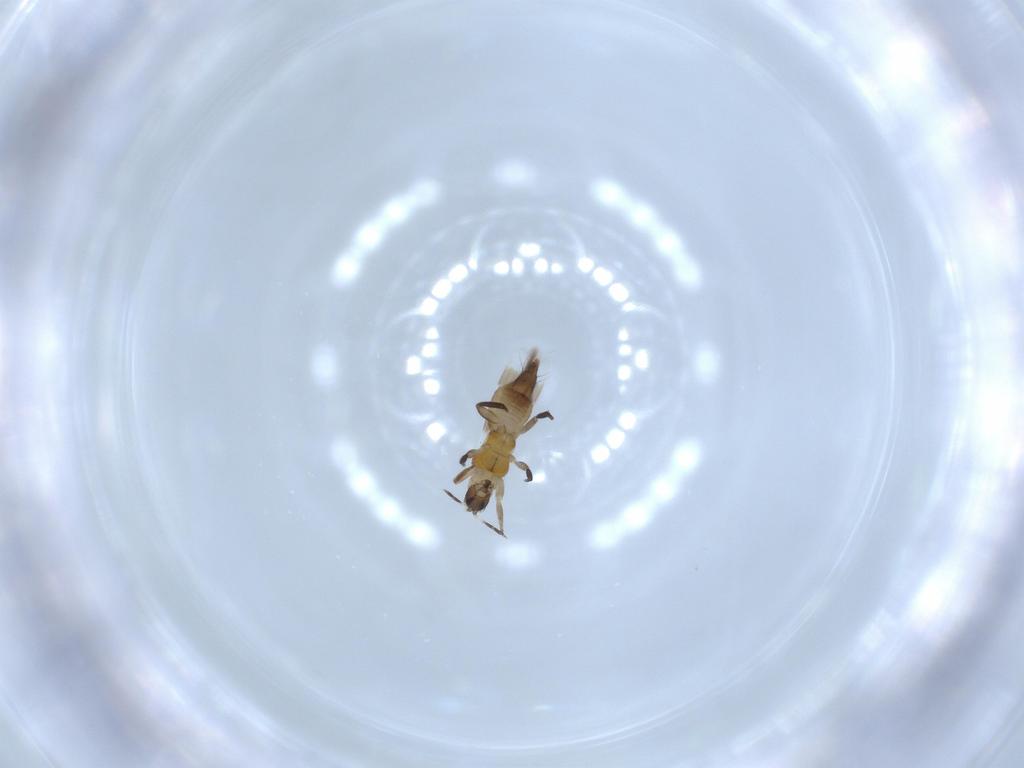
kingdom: Animalia
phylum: Arthropoda
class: Insecta
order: Thysanoptera
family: Aeolothripidae
